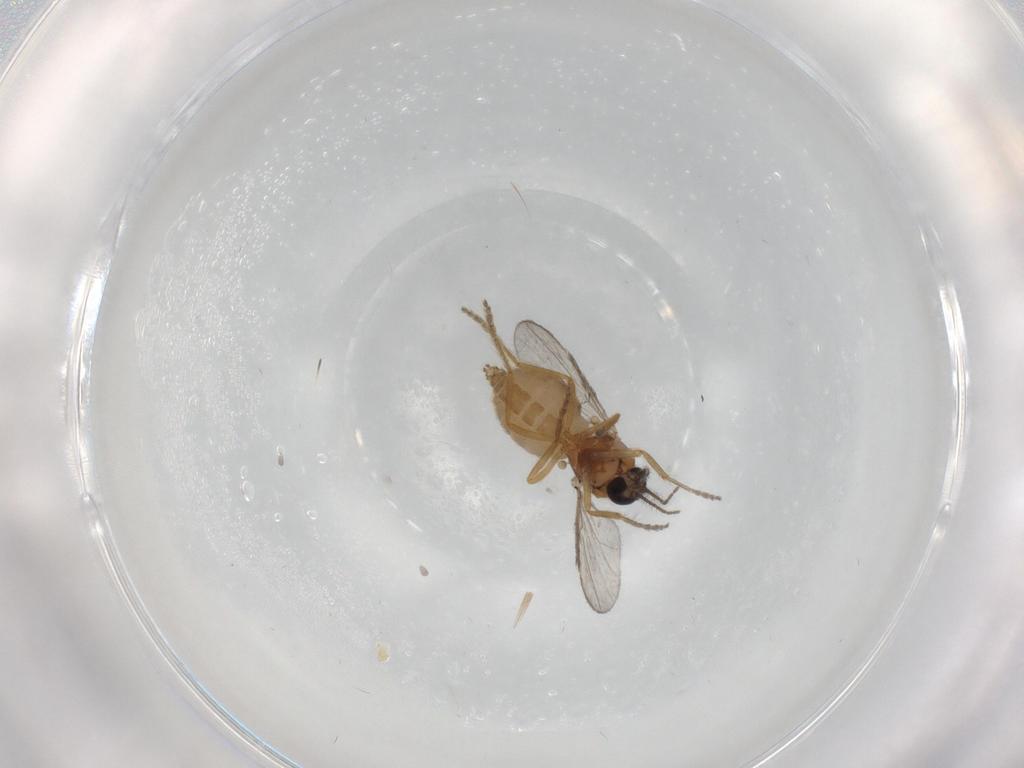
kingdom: Animalia
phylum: Arthropoda
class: Insecta
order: Diptera
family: Ceratopogonidae
